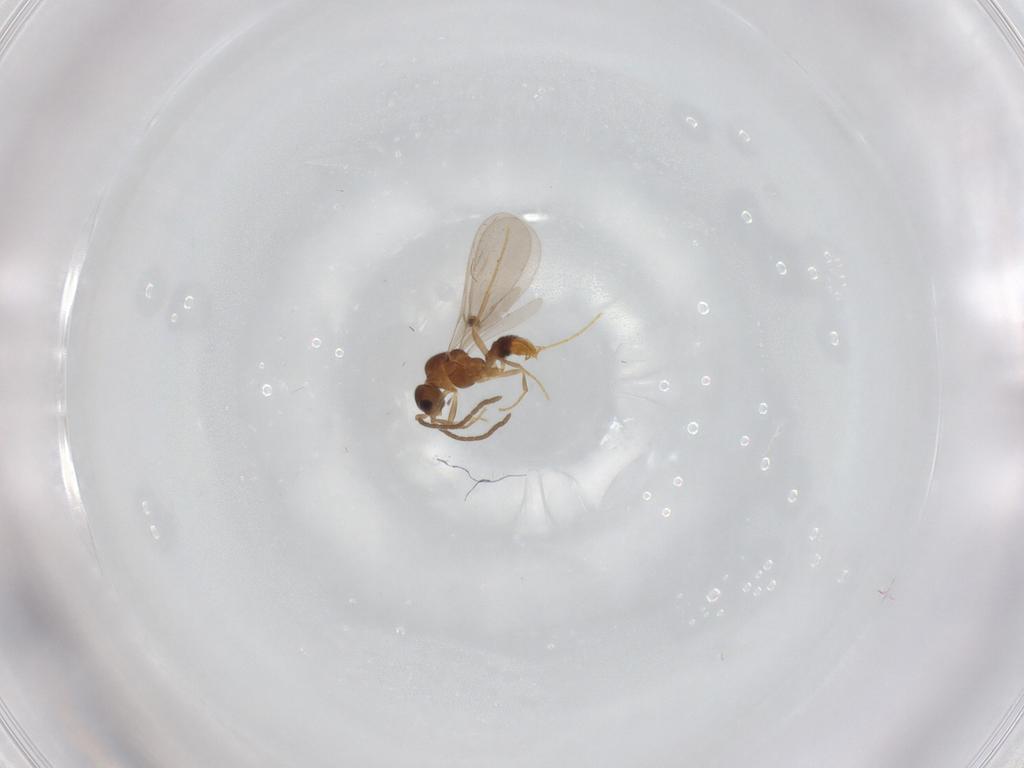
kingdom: Animalia
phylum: Arthropoda
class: Insecta
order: Hymenoptera
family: Formicidae
